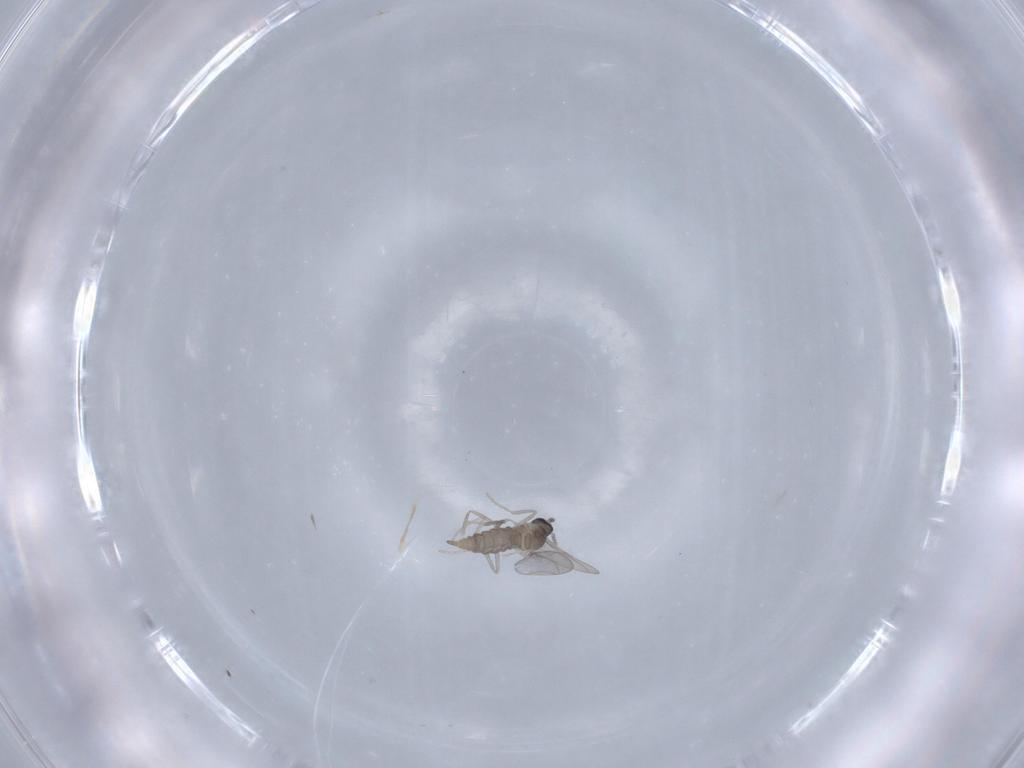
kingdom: Animalia
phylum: Arthropoda
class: Insecta
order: Diptera
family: Cecidomyiidae
